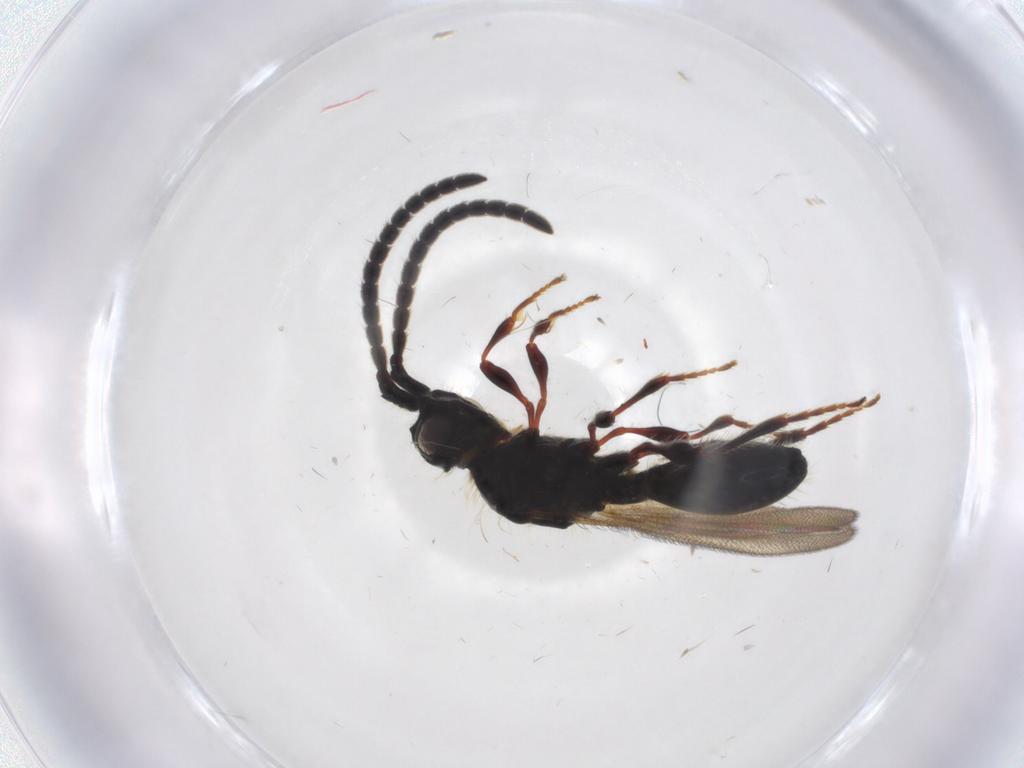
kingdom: Animalia
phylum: Arthropoda
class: Insecta
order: Hymenoptera
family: Diapriidae
